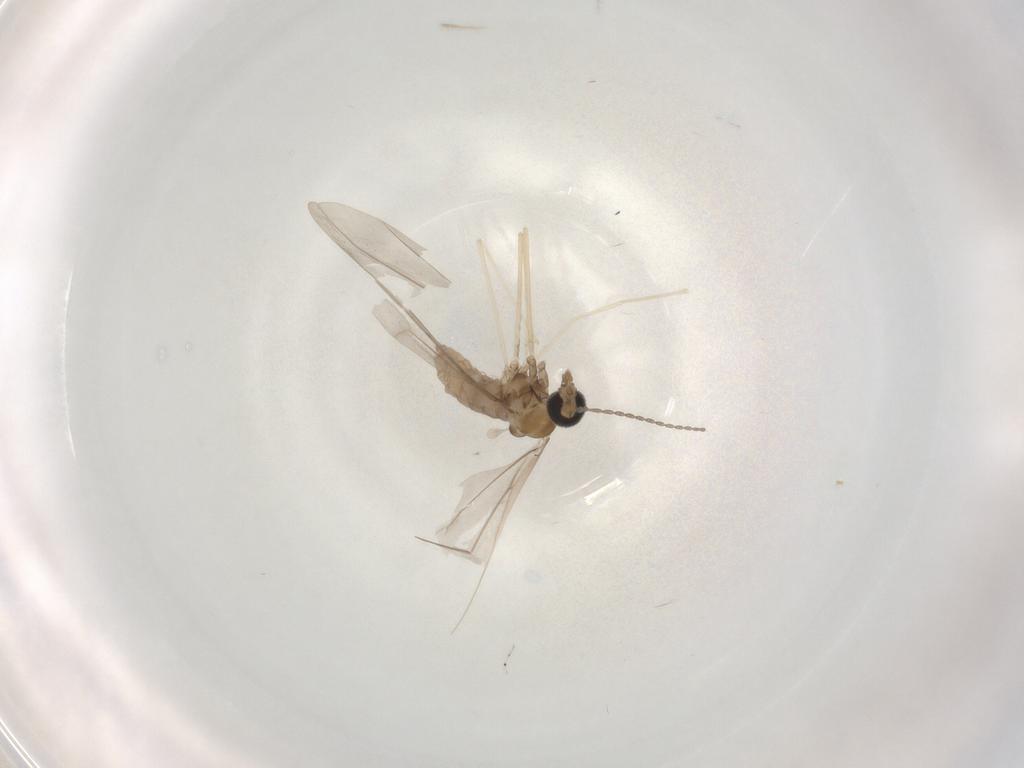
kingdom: Animalia
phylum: Arthropoda
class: Insecta
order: Diptera
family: Cecidomyiidae
